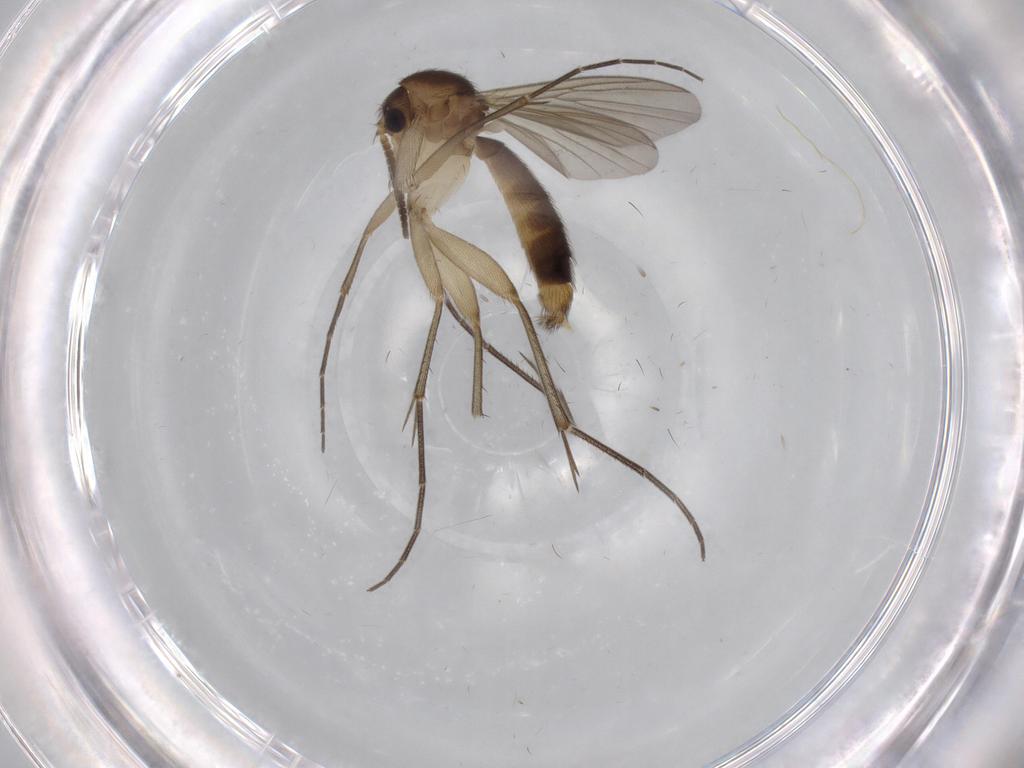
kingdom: Animalia
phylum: Arthropoda
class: Insecta
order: Diptera
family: Mycetophilidae
